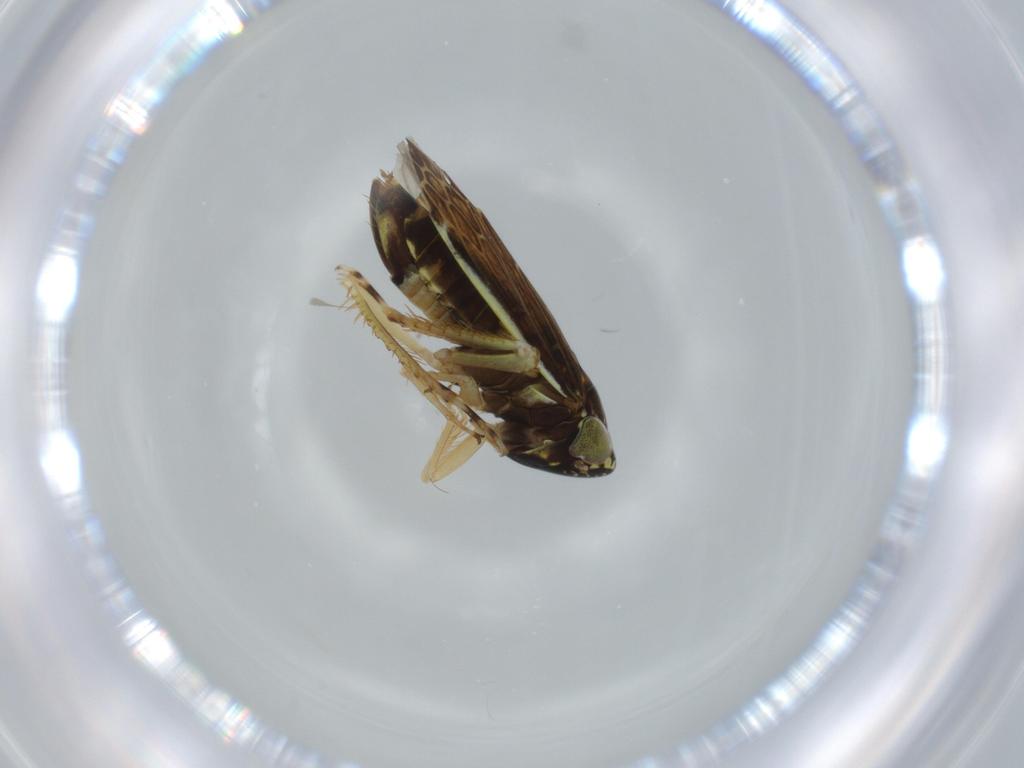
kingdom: Animalia
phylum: Arthropoda
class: Insecta
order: Hemiptera
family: Cicadellidae
